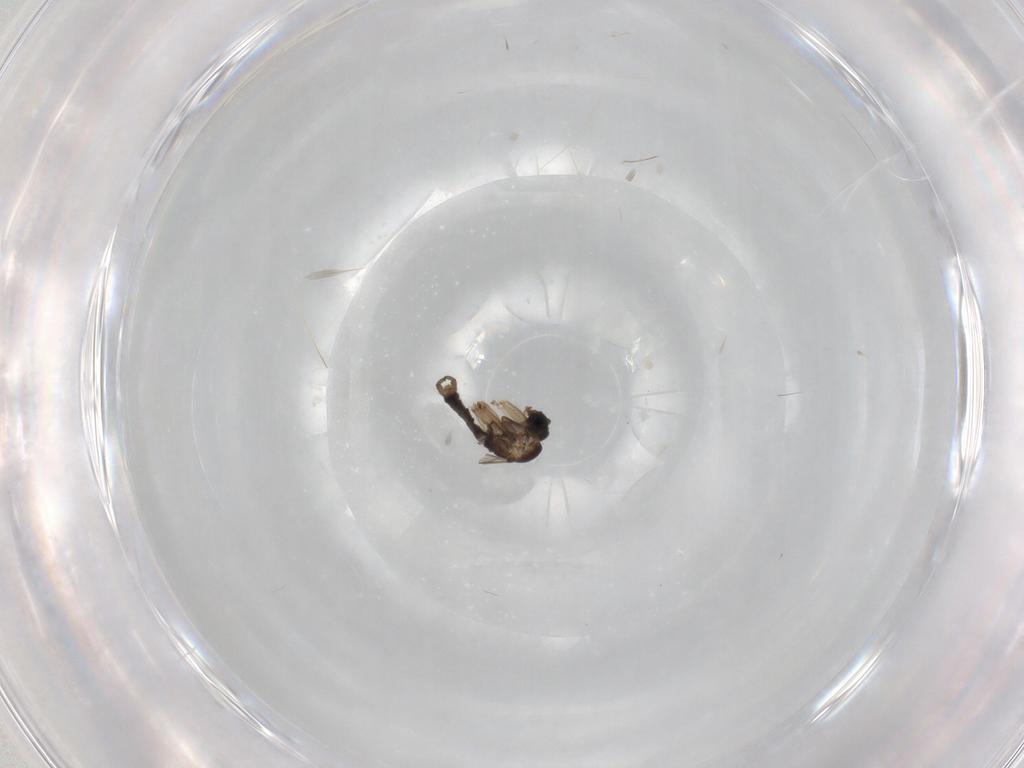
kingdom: Animalia
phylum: Arthropoda
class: Insecta
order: Diptera
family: Sciaridae
